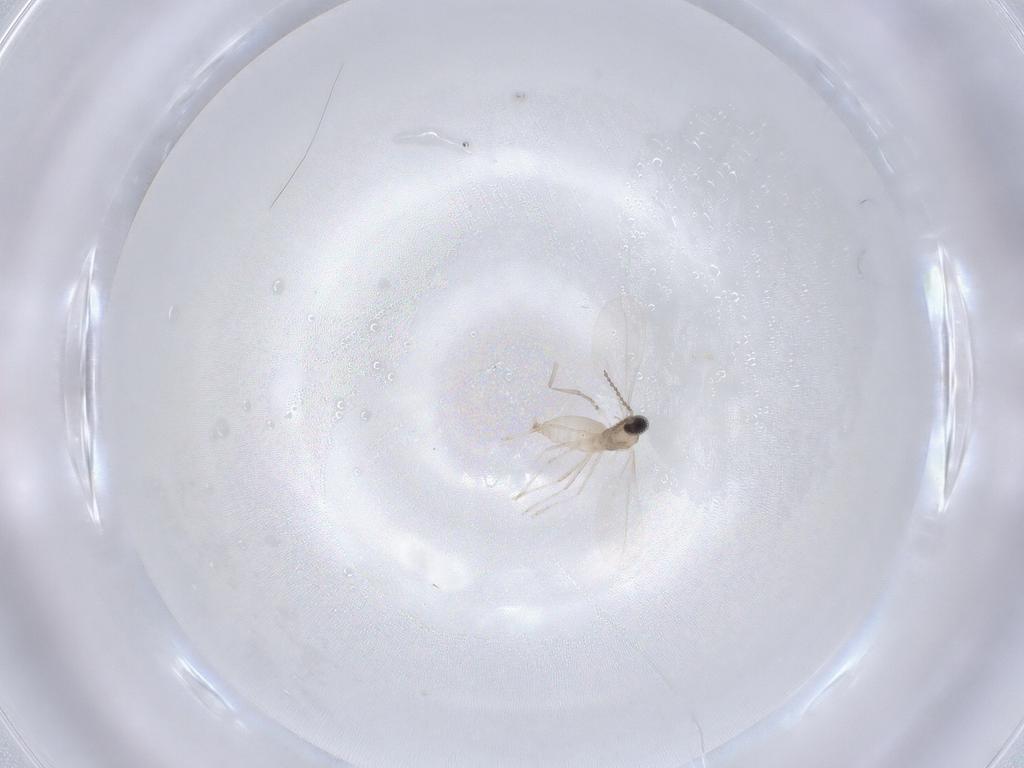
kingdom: Animalia
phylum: Arthropoda
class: Insecta
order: Diptera
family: Cecidomyiidae
